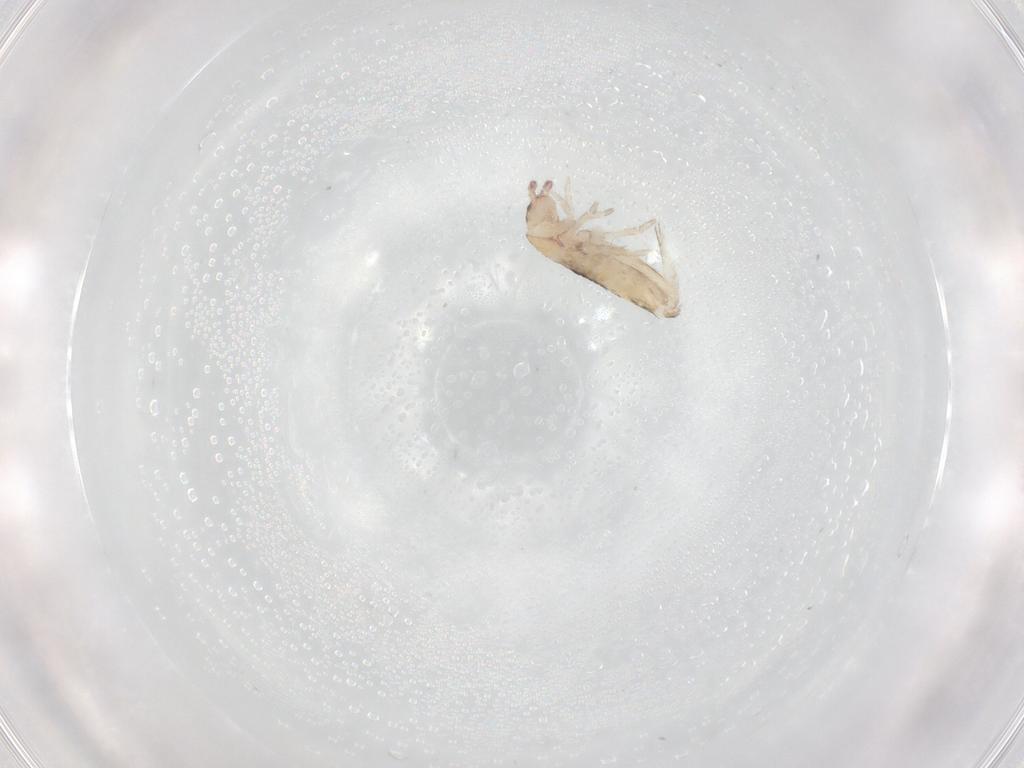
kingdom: Animalia
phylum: Arthropoda
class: Collembola
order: Entomobryomorpha
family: Entomobryidae
